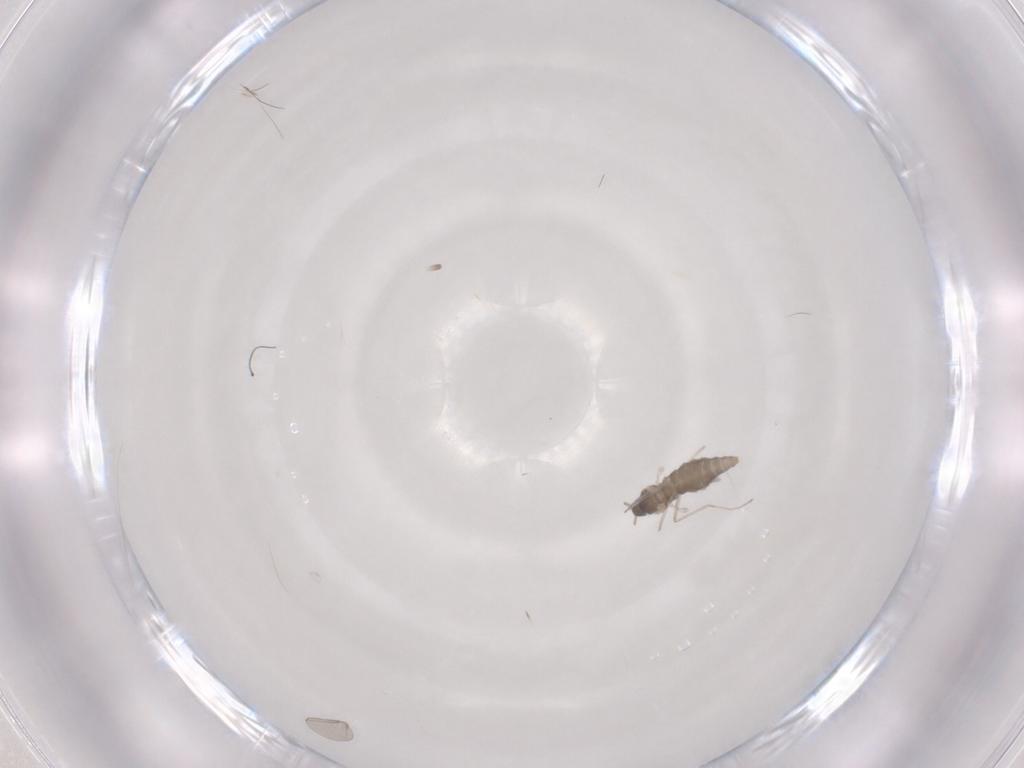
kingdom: Animalia
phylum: Arthropoda
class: Insecta
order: Diptera
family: Cecidomyiidae
